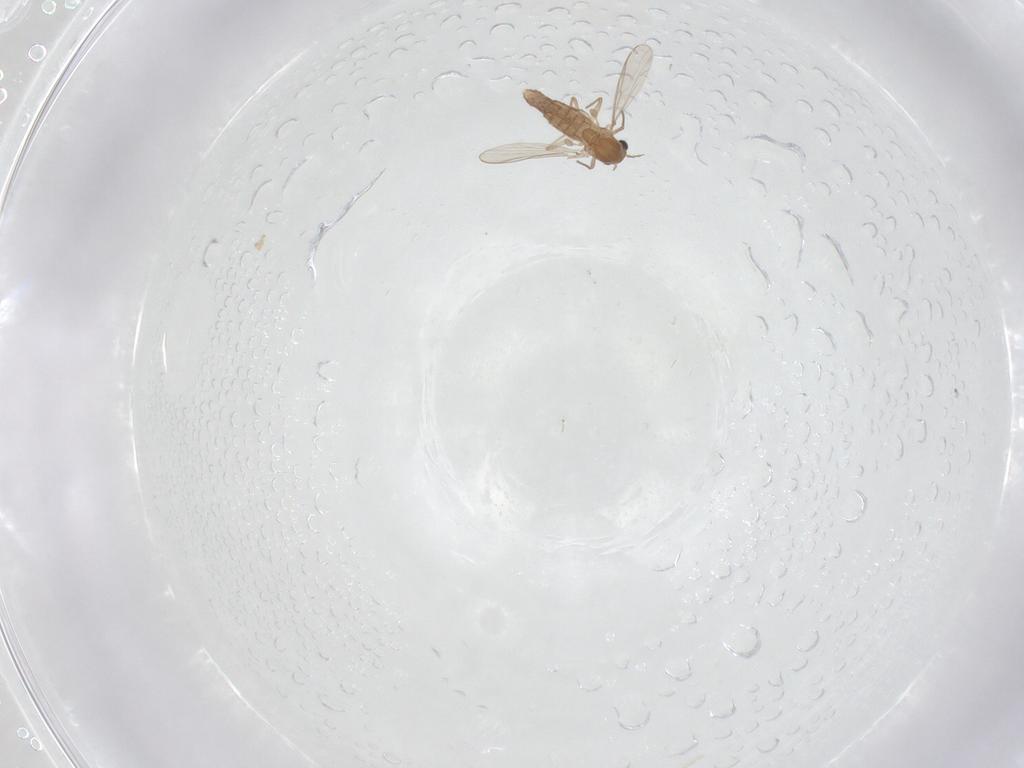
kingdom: Animalia
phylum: Arthropoda
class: Insecta
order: Diptera
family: Chironomidae
